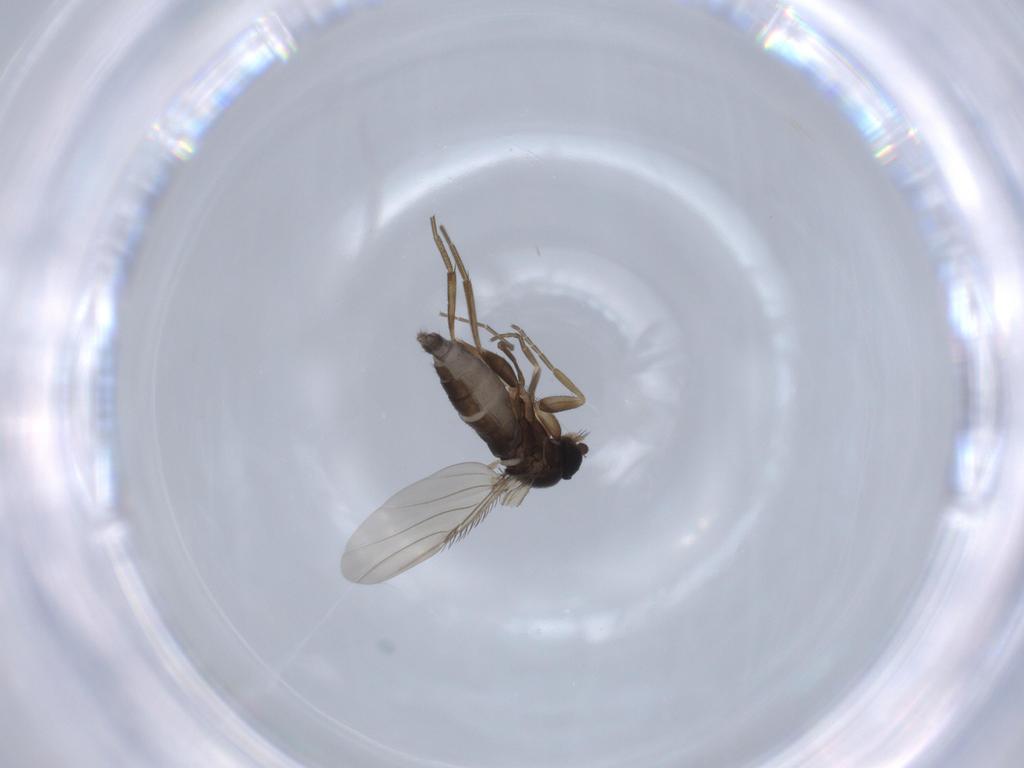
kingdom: Animalia
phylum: Arthropoda
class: Insecta
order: Diptera
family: Phoridae
